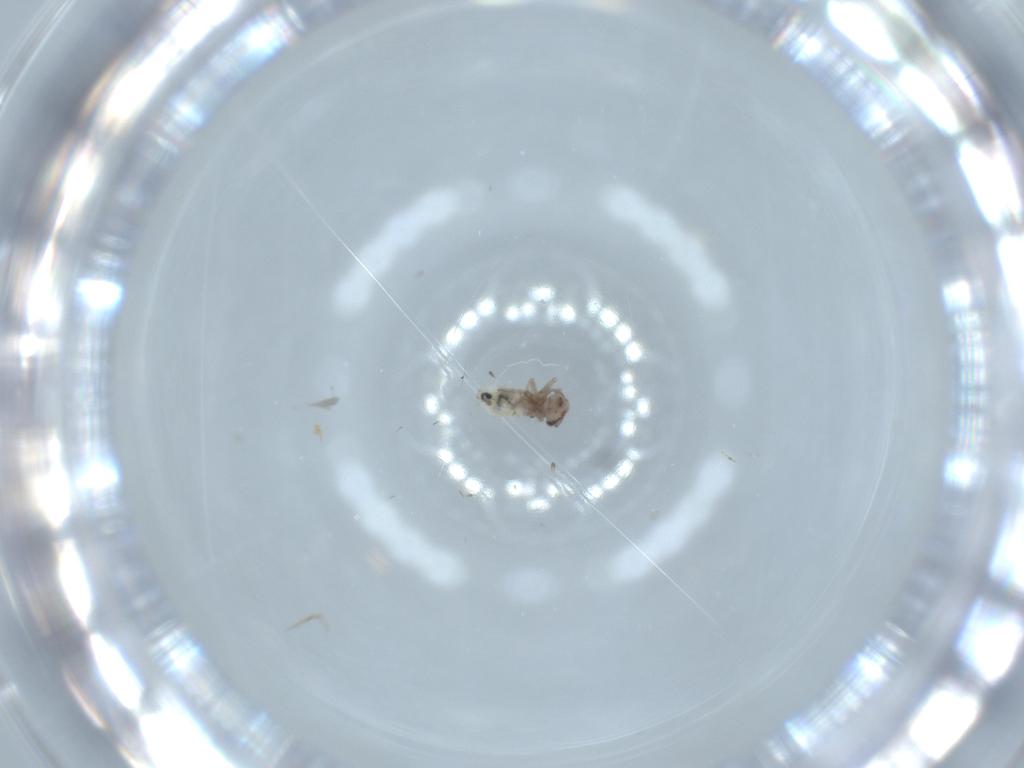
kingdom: Animalia
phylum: Arthropoda
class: Insecta
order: Psocodea
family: Lepidopsocidae
